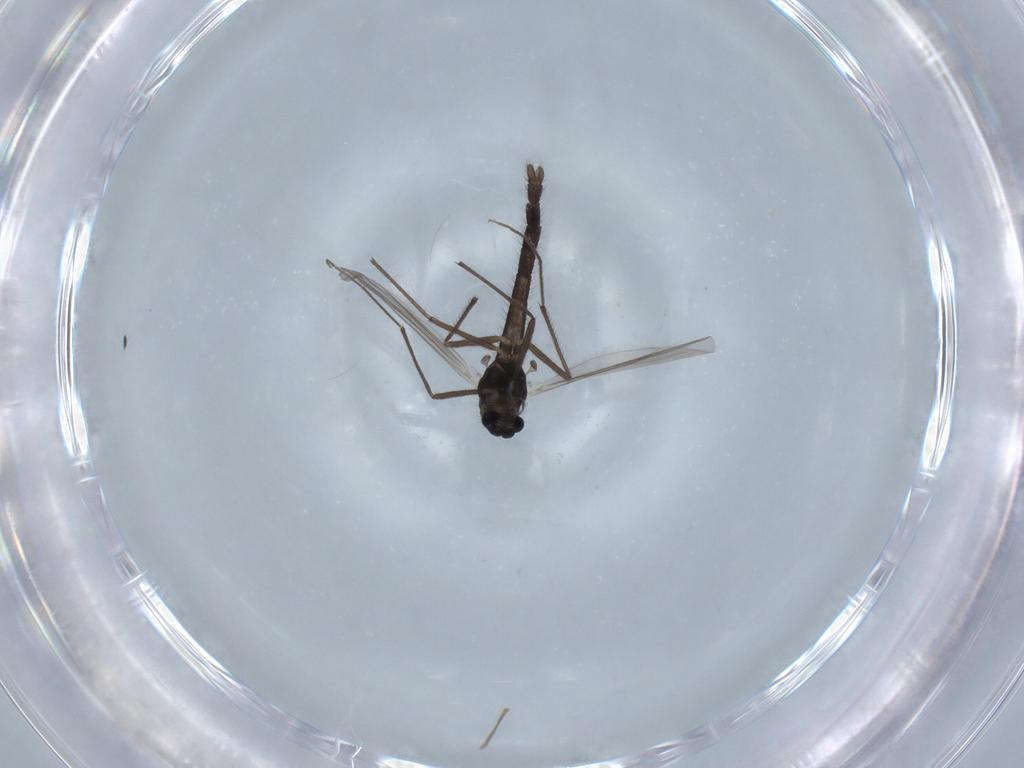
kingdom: Animalia
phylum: Arthropoda
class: Insecta
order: Diptera
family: Chironomidae
